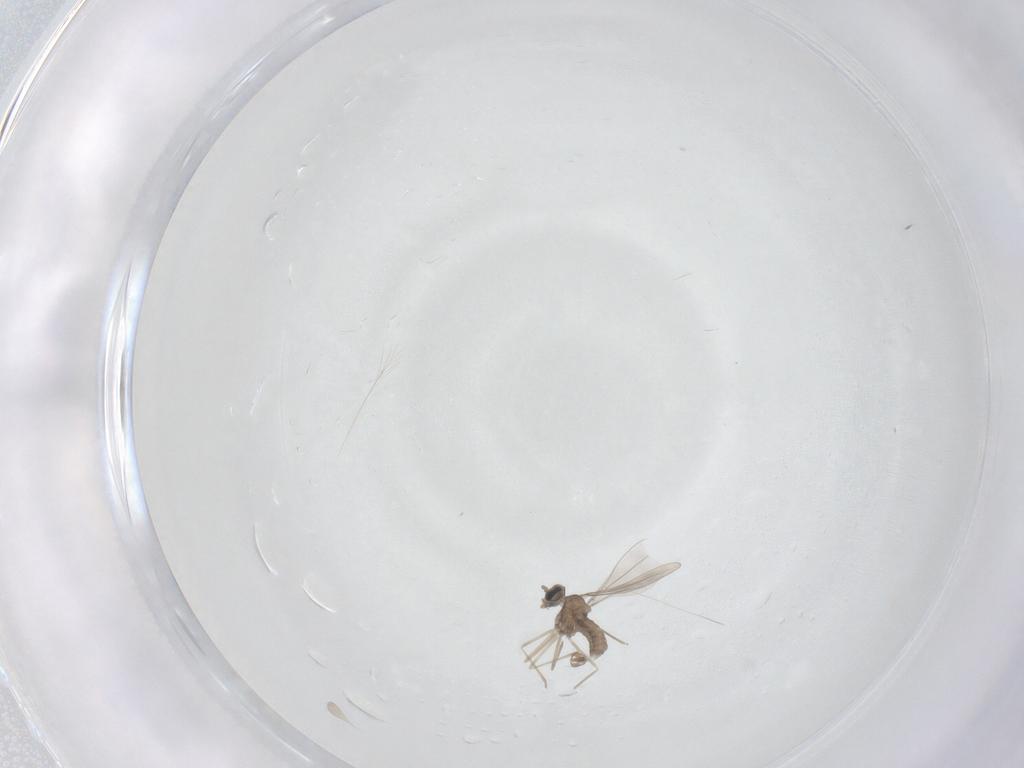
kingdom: Animalia
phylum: Arthropoda
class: Insecta
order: Diptera
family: Cecidomyiidae
